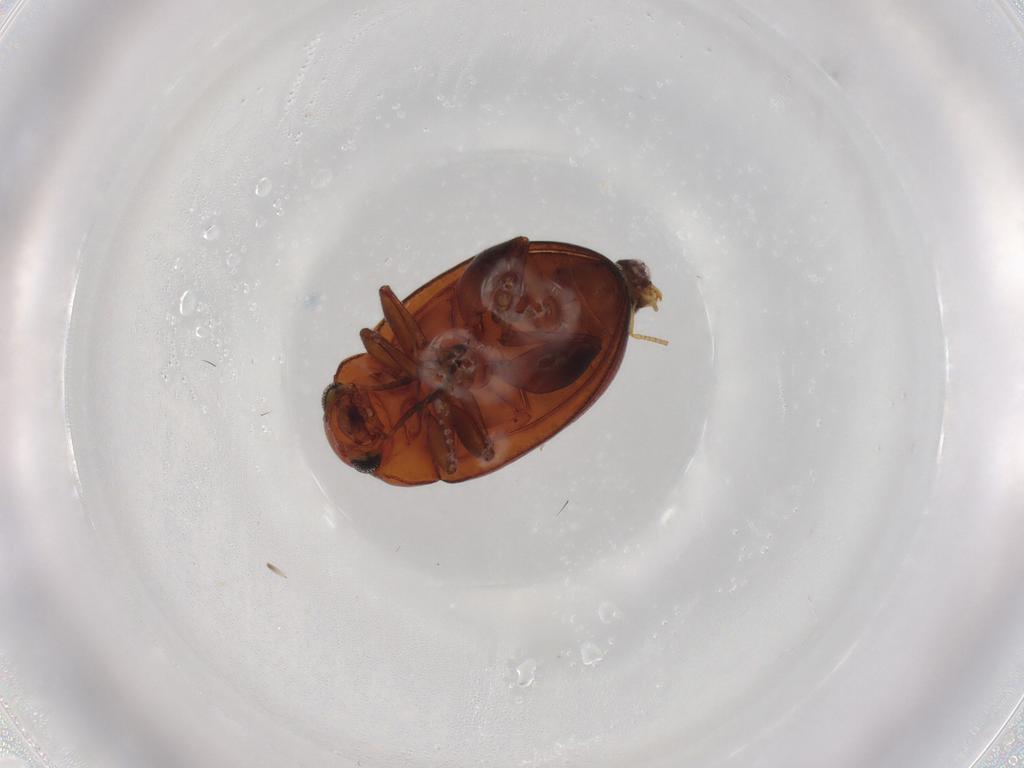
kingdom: Animalia
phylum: Arthropoda
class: Insecta
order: Coleoptera
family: Chrysomelidae
